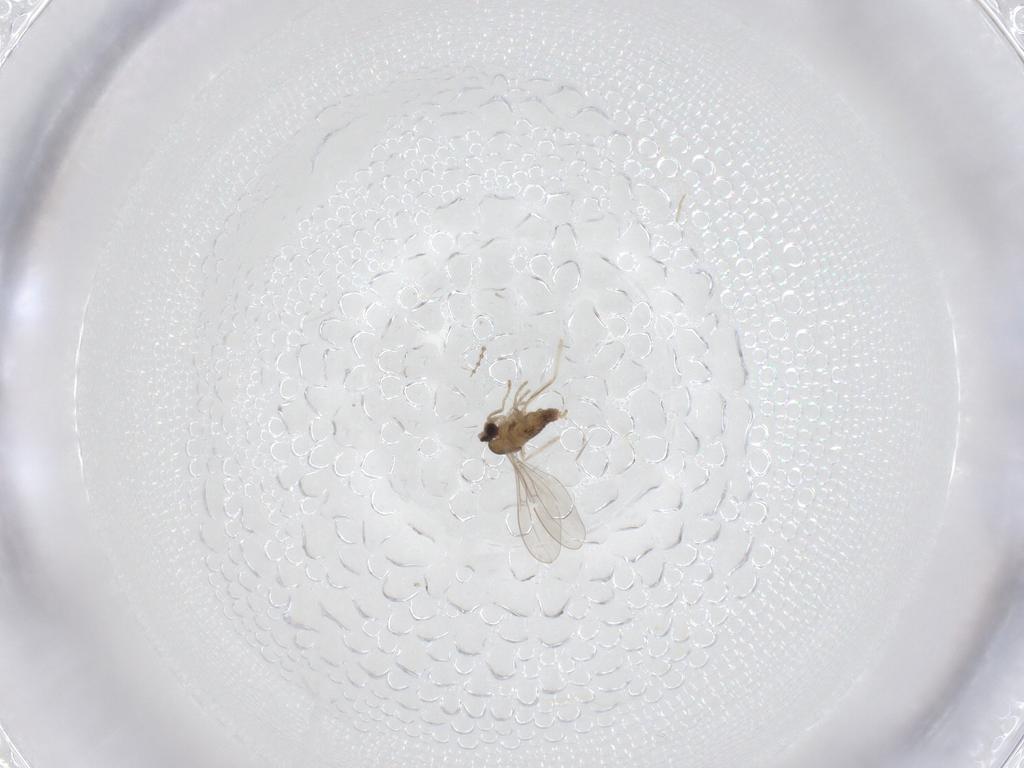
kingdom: Animalia
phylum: Arthropoda
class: Insecta
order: Diptera
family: Cecidomyiidae
